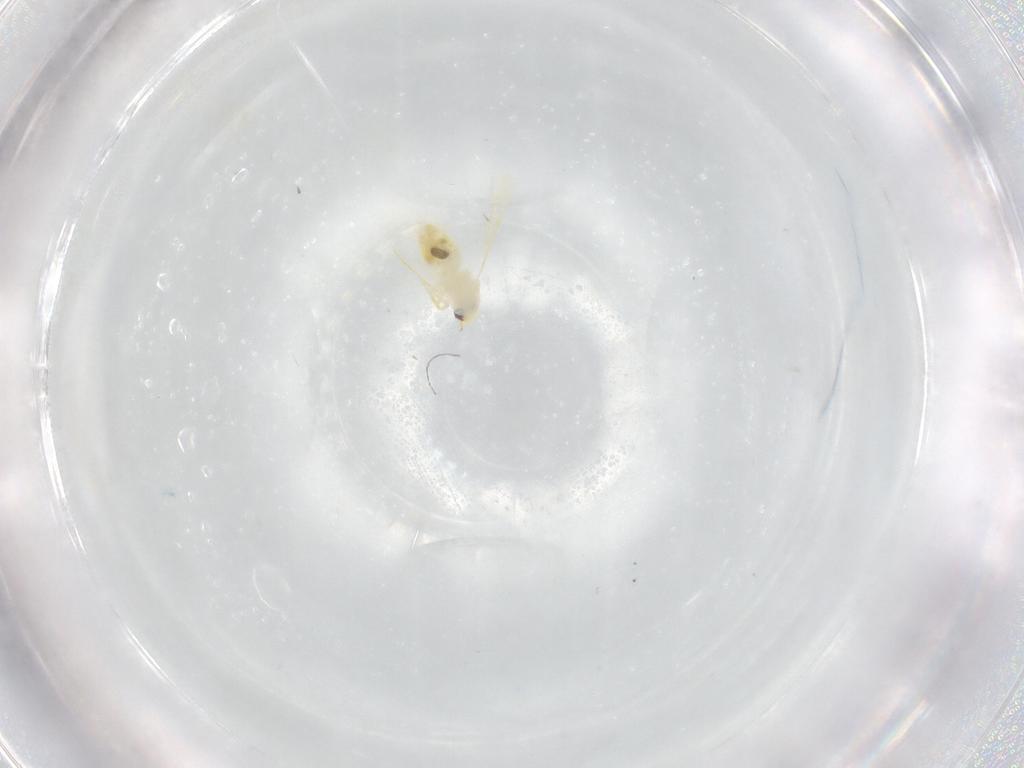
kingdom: Animalia
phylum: Arthropoda
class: Insecta
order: Hemiptera
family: Aleyrodidae
